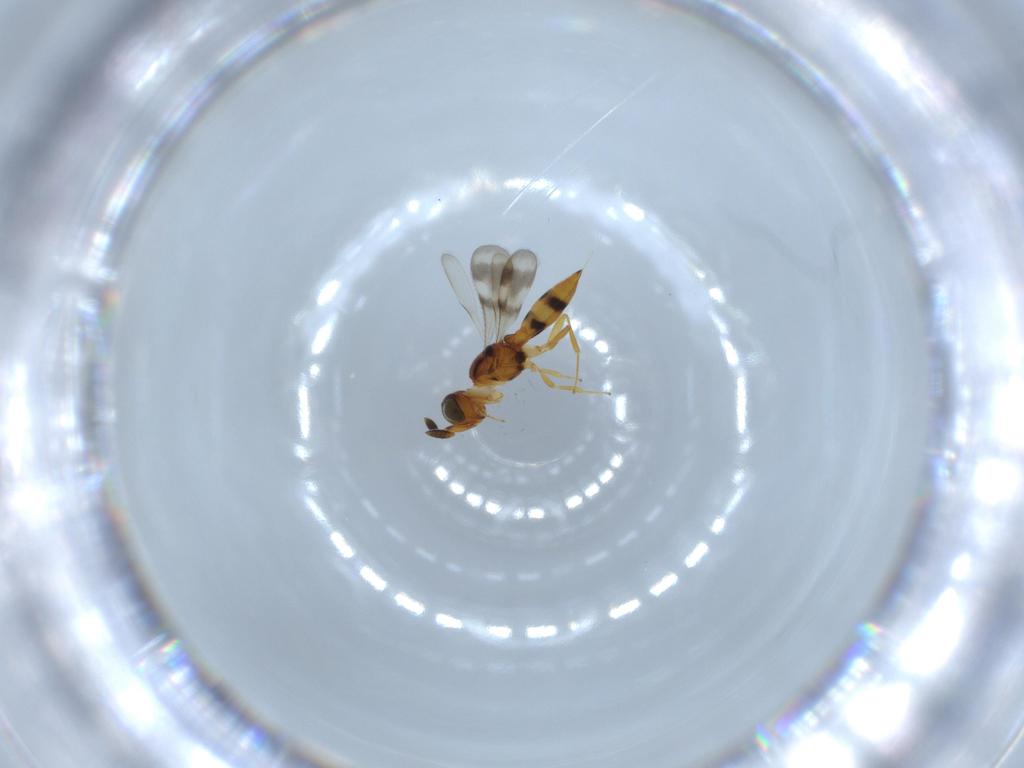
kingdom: Animalia
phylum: Arthropoda
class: Insecta
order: Hymenoptera
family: Scelionidae
